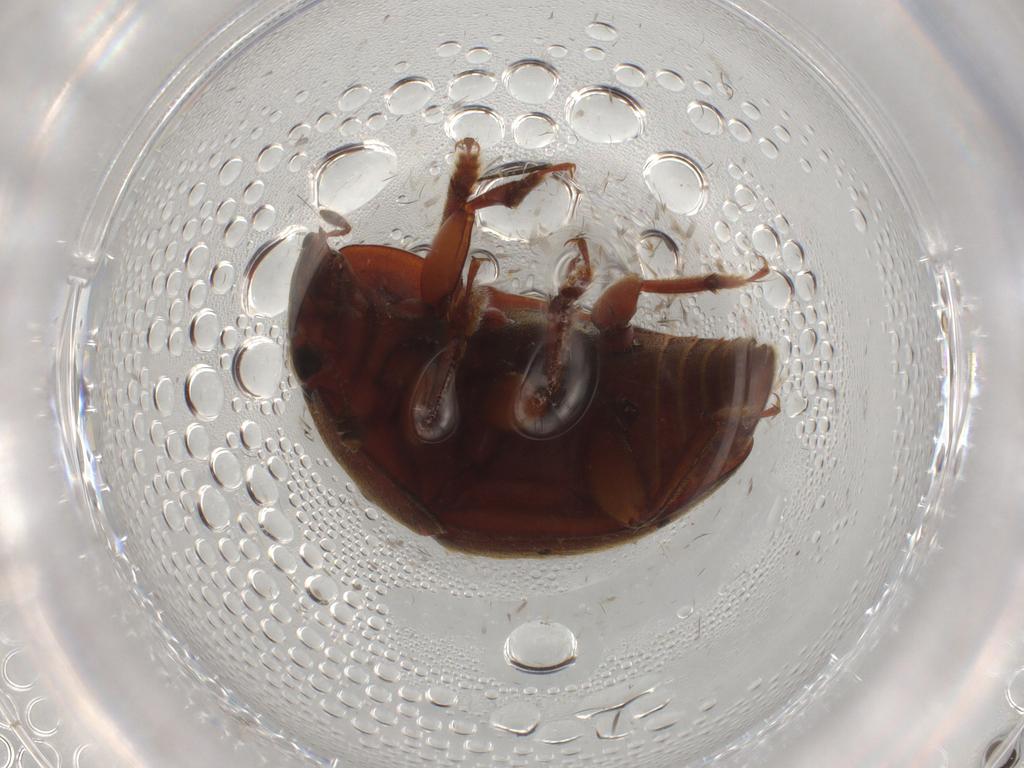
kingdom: Animalia
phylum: Arthropoda
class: Insecta
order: Coleoptera
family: Nitidulidae
